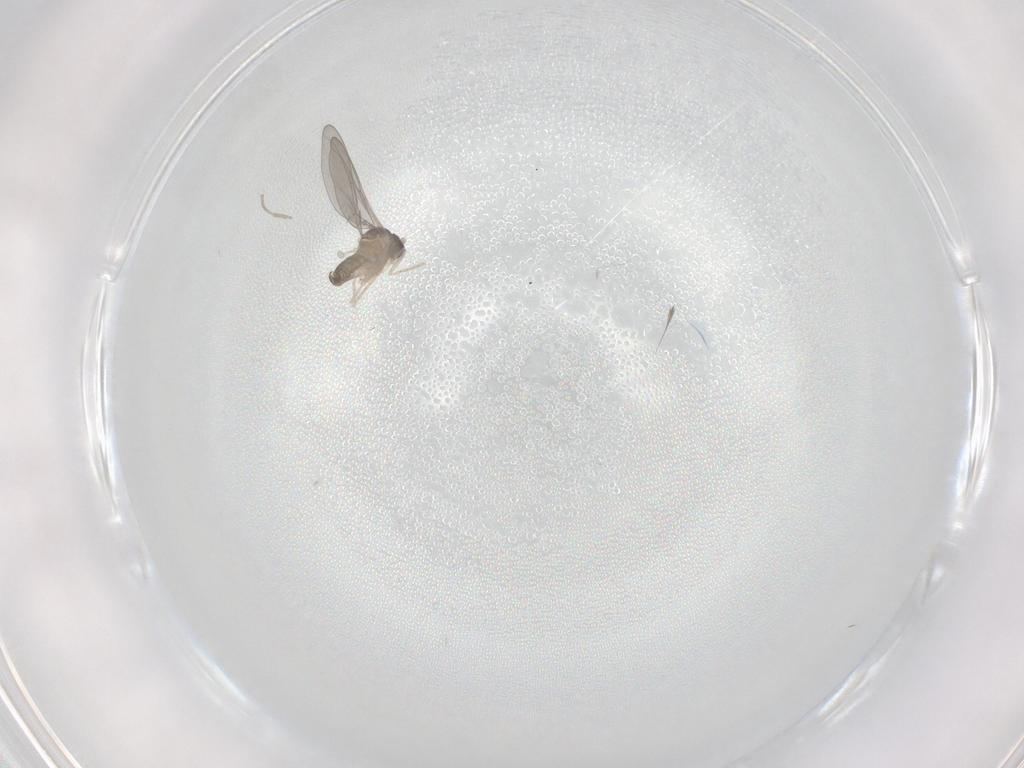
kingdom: Animalia
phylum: Arthropoda
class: Insecta
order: Diptera
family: Cecidomyiidae
